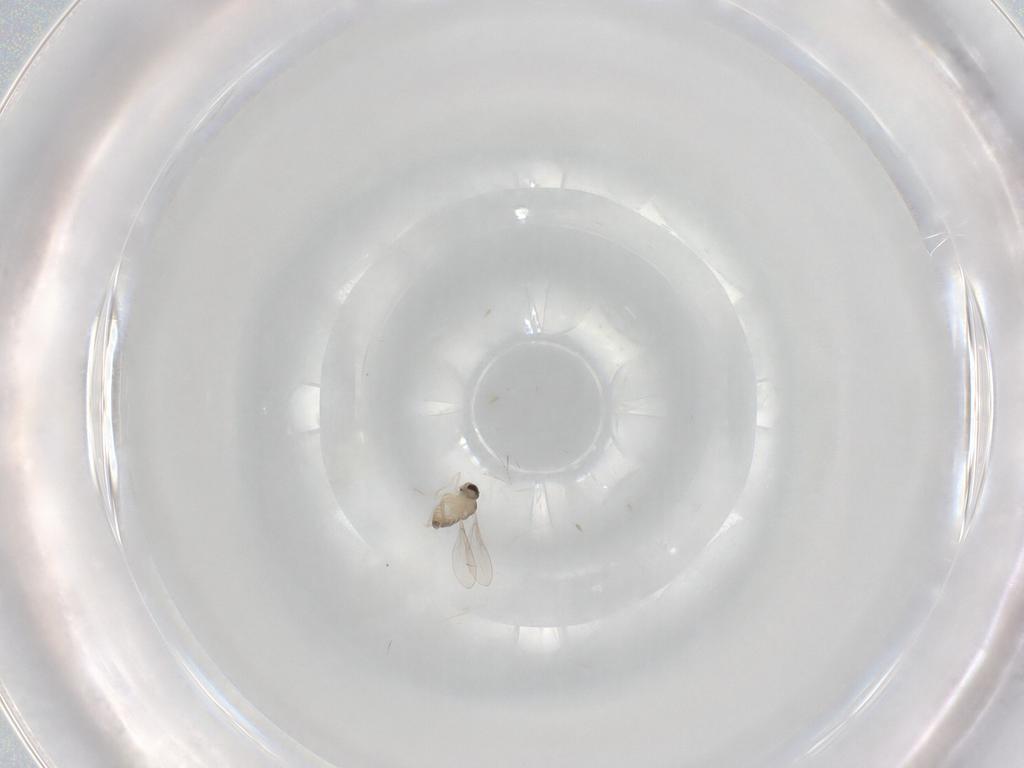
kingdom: Animalia
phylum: Arthropoda
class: Insecta
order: Diptera
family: Cecidomyiidae
